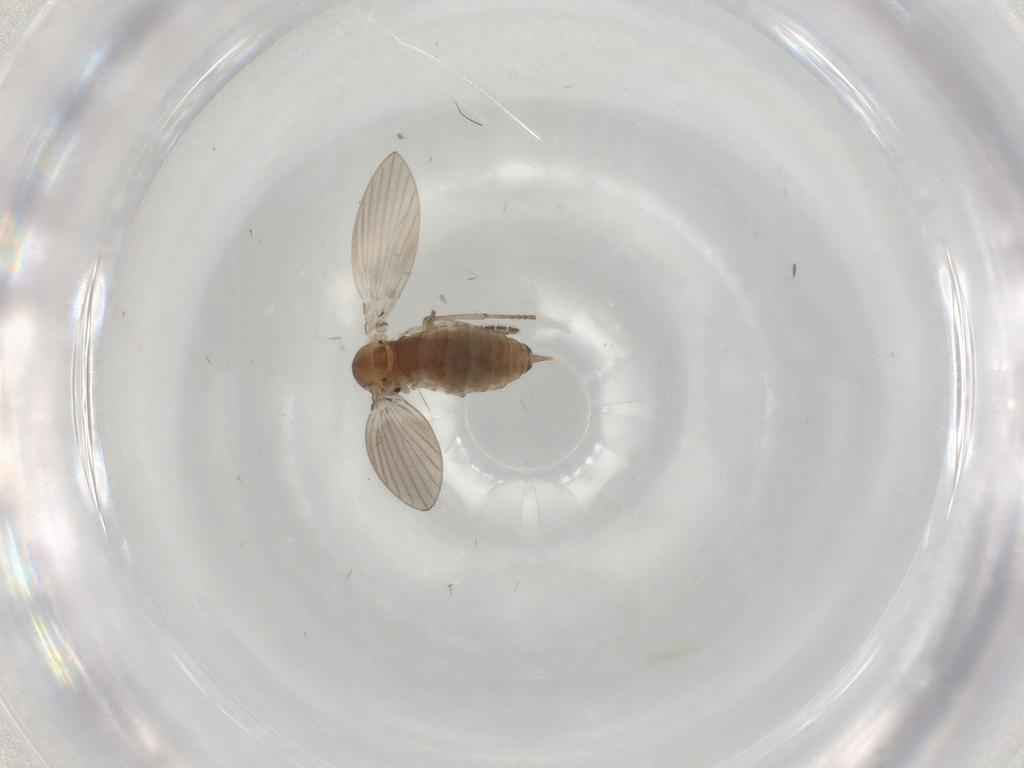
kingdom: Animalia
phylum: Arthropoda
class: Insecta
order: Diptera
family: Sciaridae
